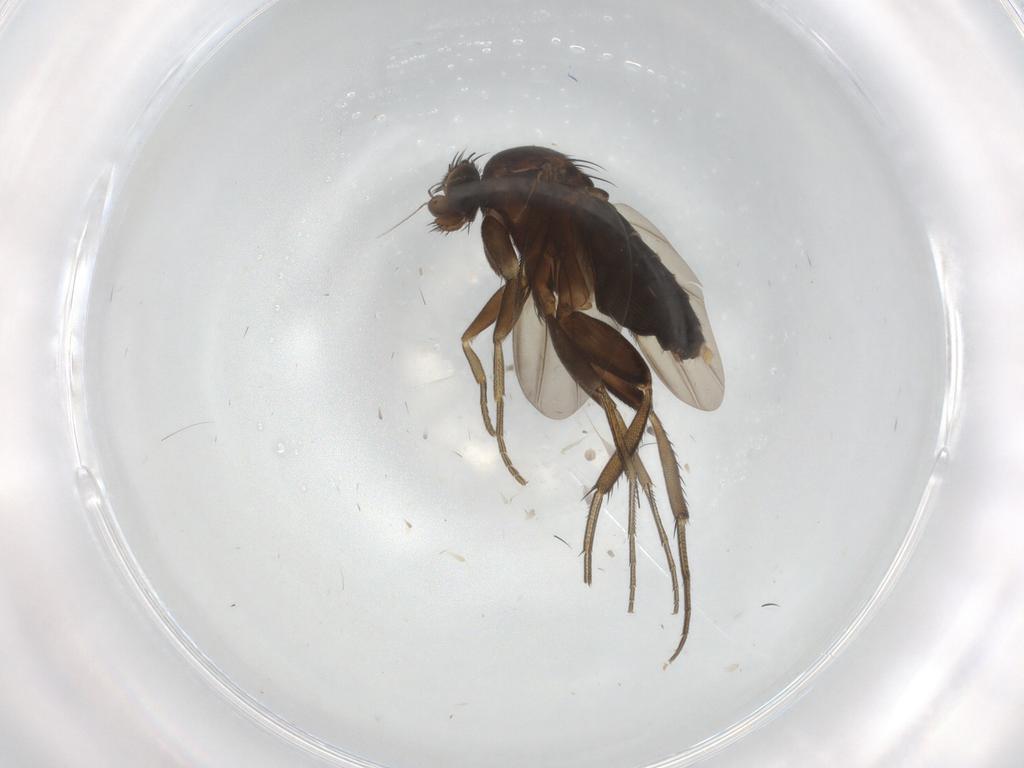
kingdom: Animalia
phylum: Arthropoda
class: Insecta
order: Diptera
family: Phoridae
